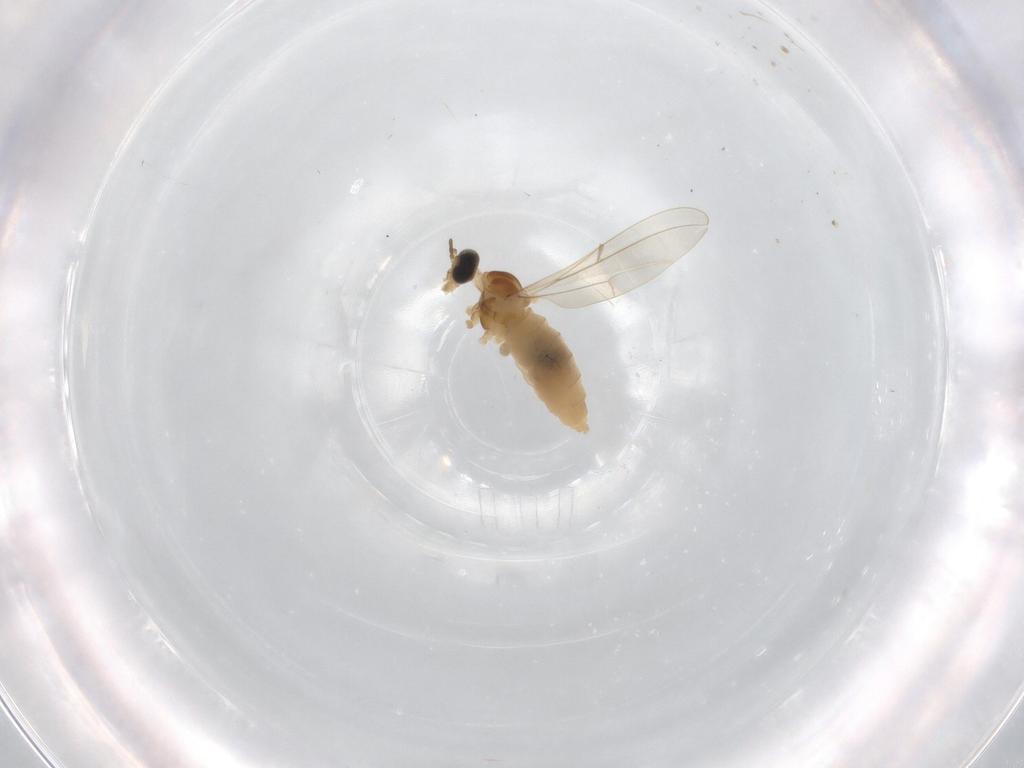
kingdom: Animalia
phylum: Arthropoda
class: Insecta
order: Diptera
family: Cecidomyiidae
